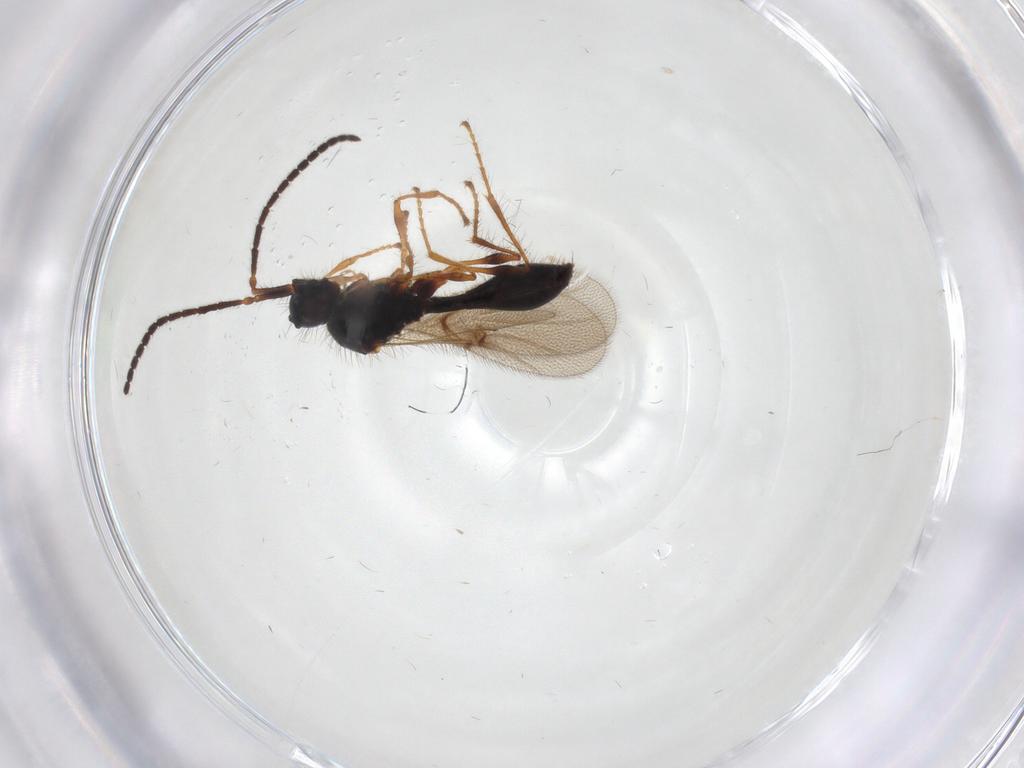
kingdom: Animalia
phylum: Arthropoda
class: Insecta
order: Hymenoptera
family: Diapriidae
